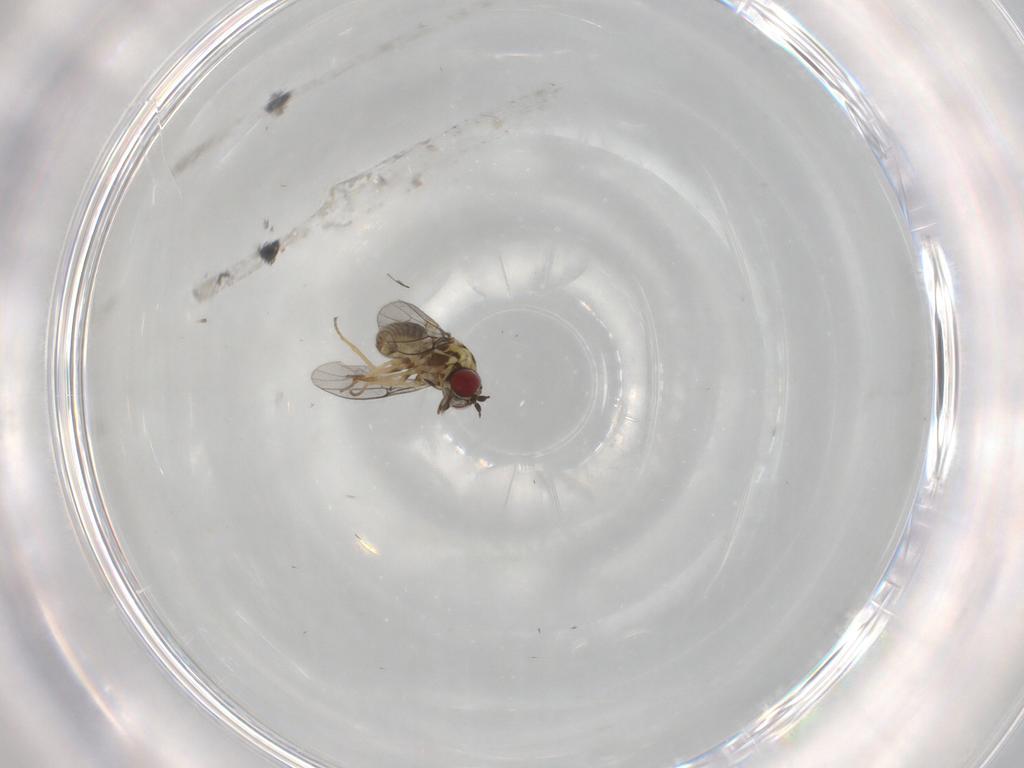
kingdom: Animalia
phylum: Arthropoda
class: Insecta
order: Diptera
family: Bombyliidae
